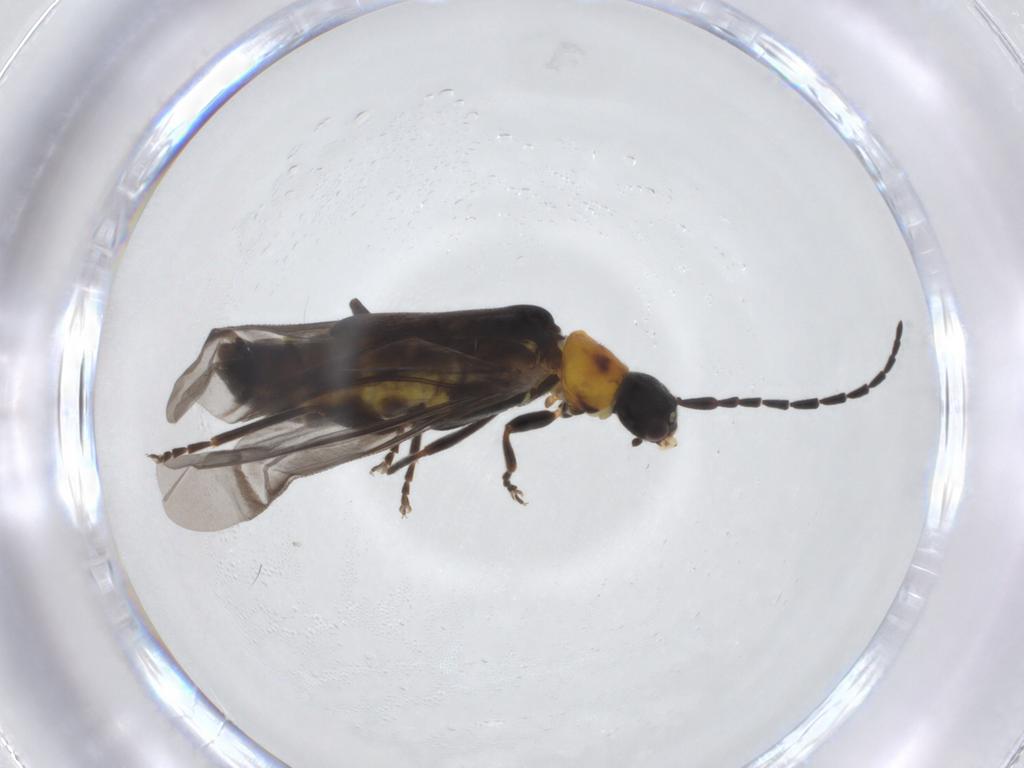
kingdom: Animalia
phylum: Arthropoda
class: Insecta
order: Coleoptera
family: Cantharidae
